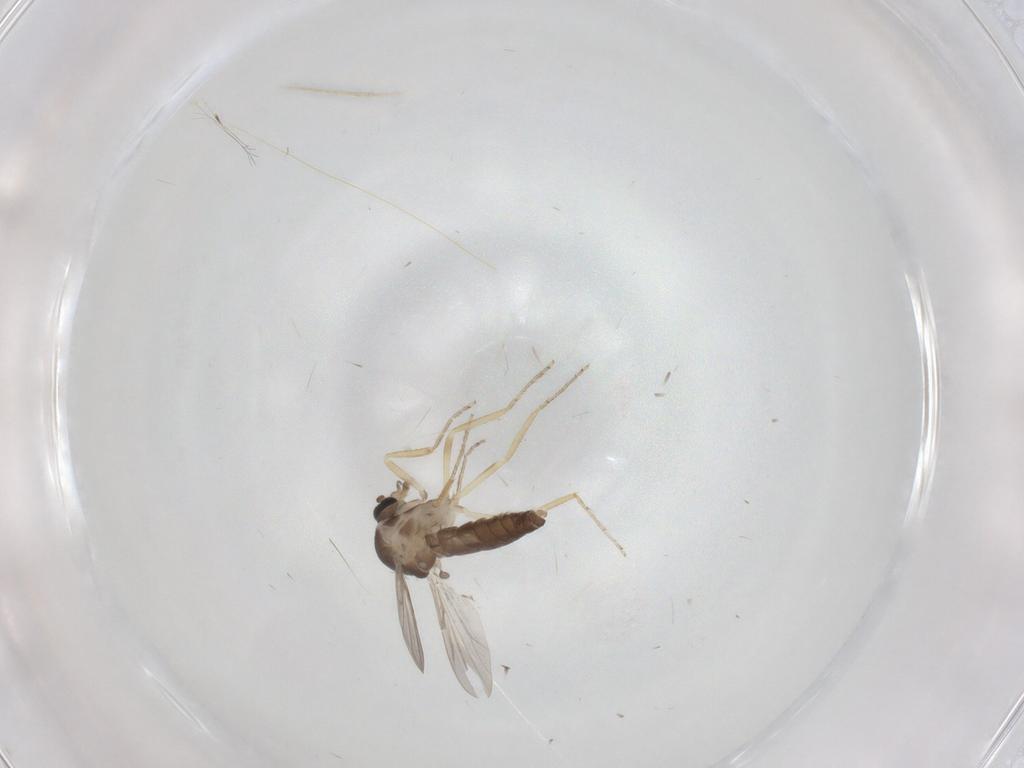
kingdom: Animalia
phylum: Arthropoda
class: Insecta
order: Diptera
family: Ceratopogonidae
